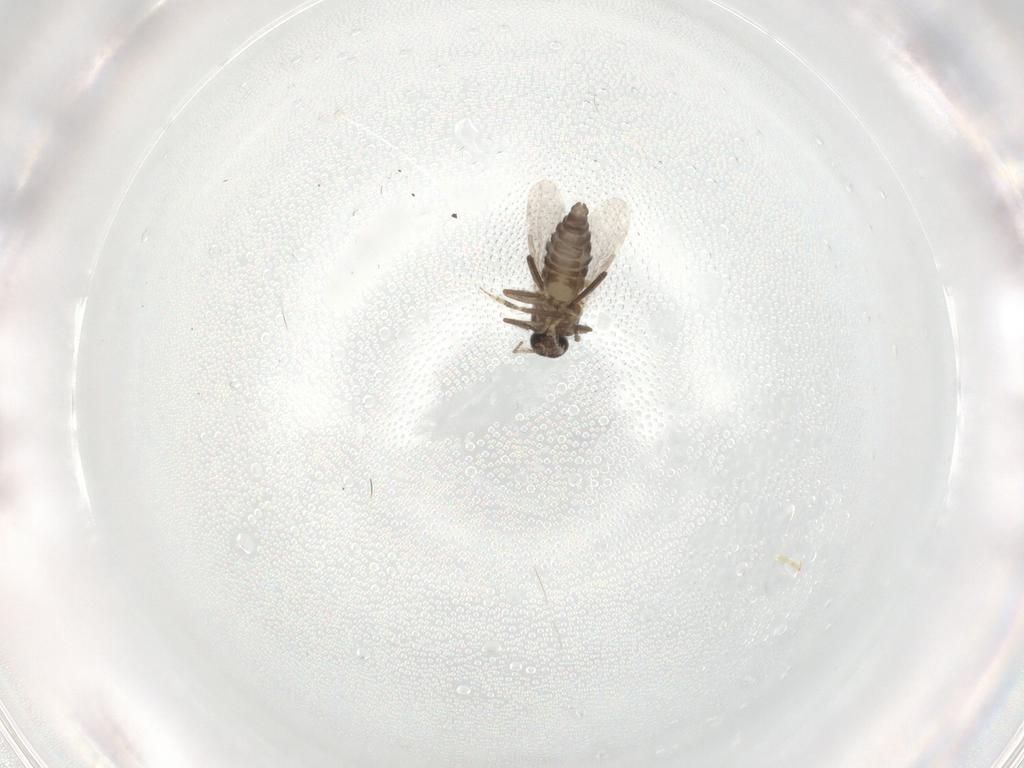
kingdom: Animalia
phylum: Arthropoda
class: Insecta
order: Diptera
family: Ceratopogonidae
